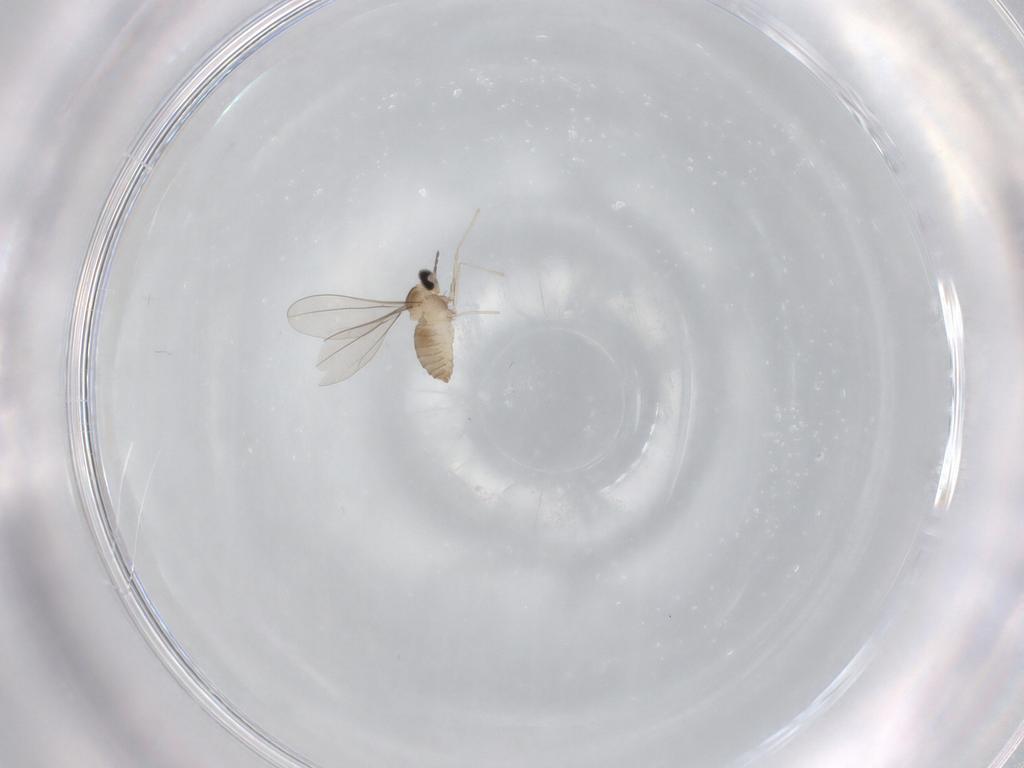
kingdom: Animalia
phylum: Arthropoda
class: Insecta
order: Diptera
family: Cecidomyiidae
